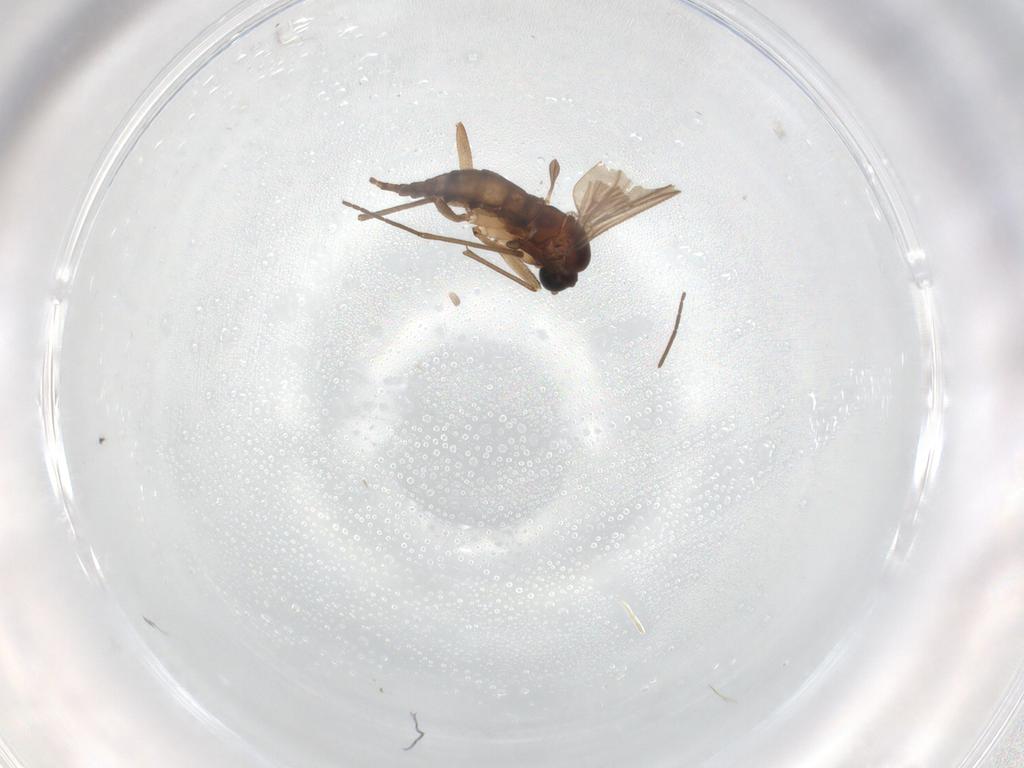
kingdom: Animalia
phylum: Arthropoda
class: Insecta
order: Diptera
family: Sciaridae
